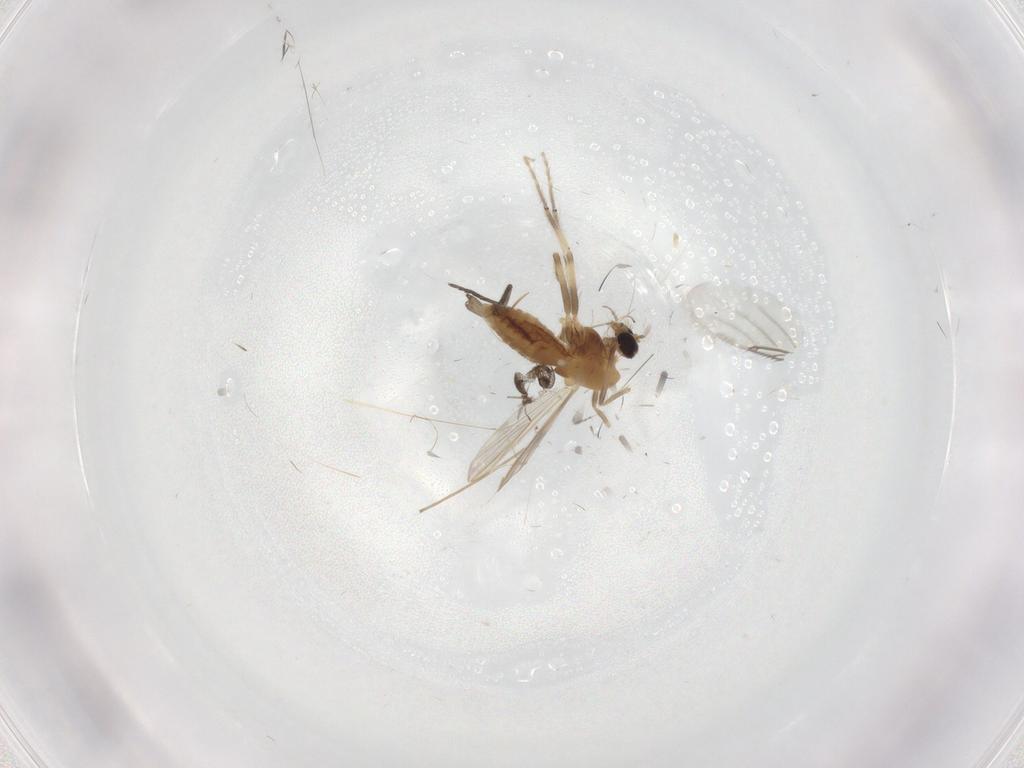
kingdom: Animalia
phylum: Arthropoda
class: Insecta
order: Diptera
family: Chironomidae
